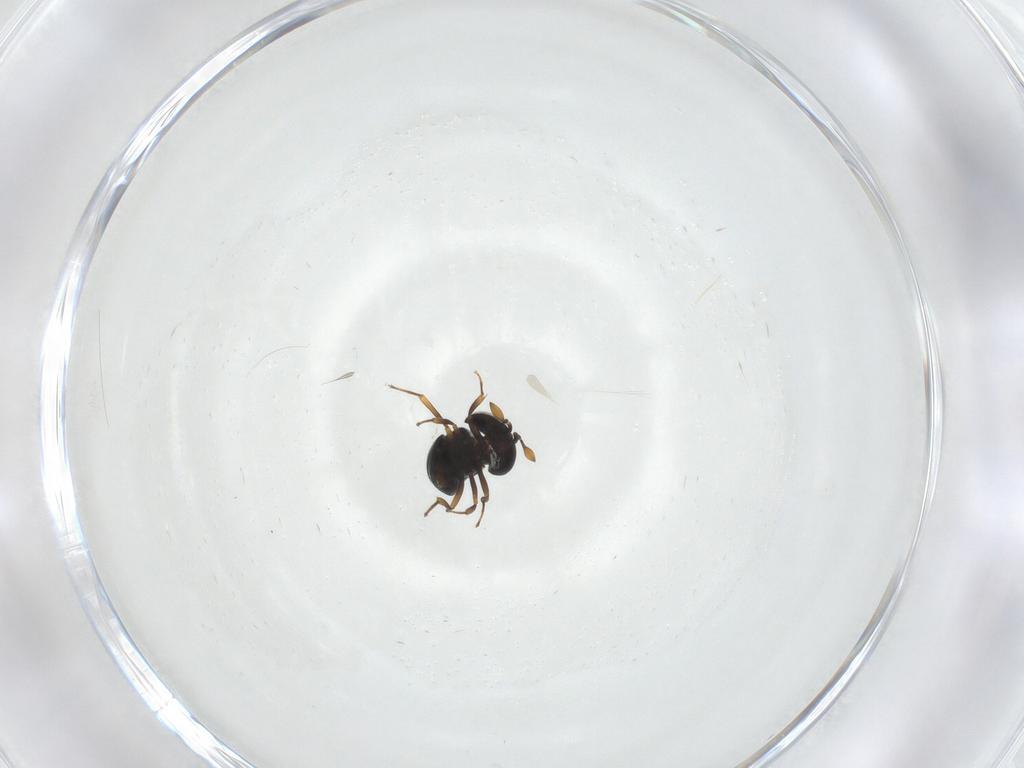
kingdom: Animalia
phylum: Arthropoda
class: Insecta
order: Hymenoptera
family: Scelionidae
